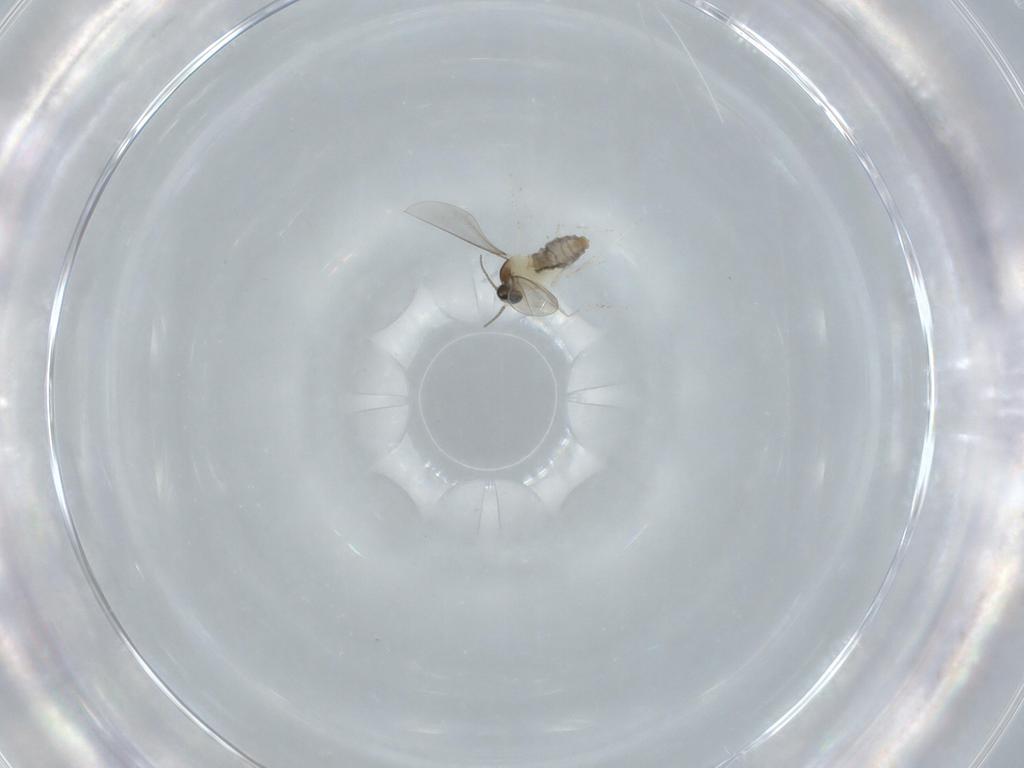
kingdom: Animalia
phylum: Arthropoda
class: Insecta
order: Diptera
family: Cecidomyiidae
